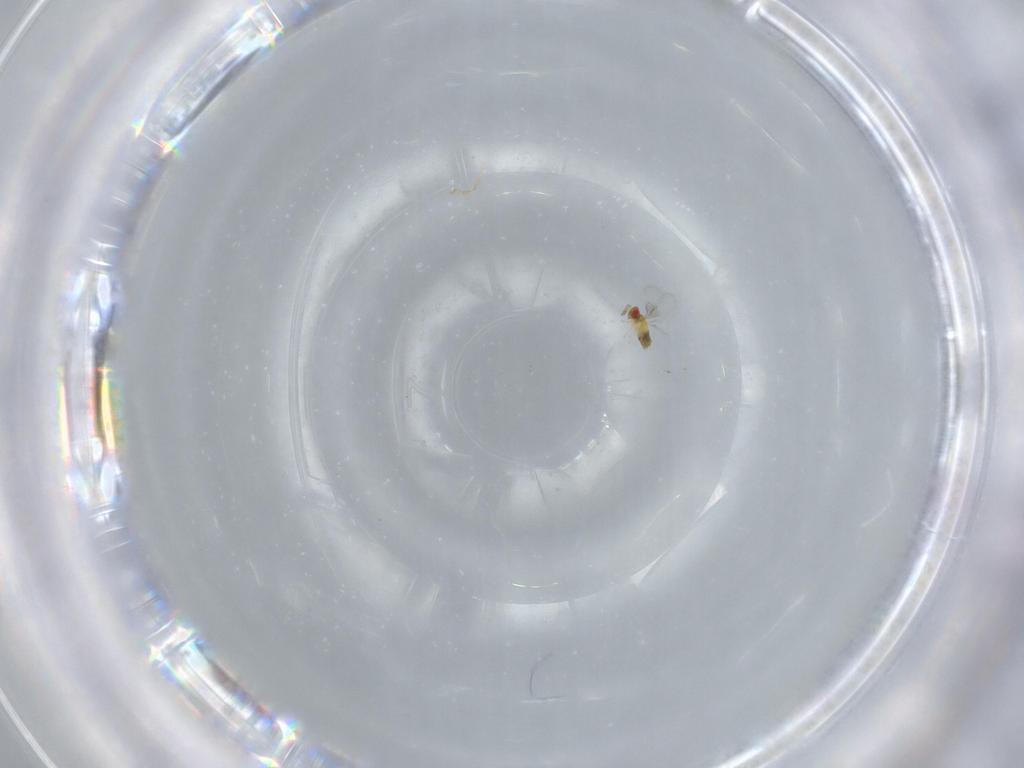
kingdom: Animalia
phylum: Arthropoda
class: Insecta
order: Hymenoptera
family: Trichogrammatidae
